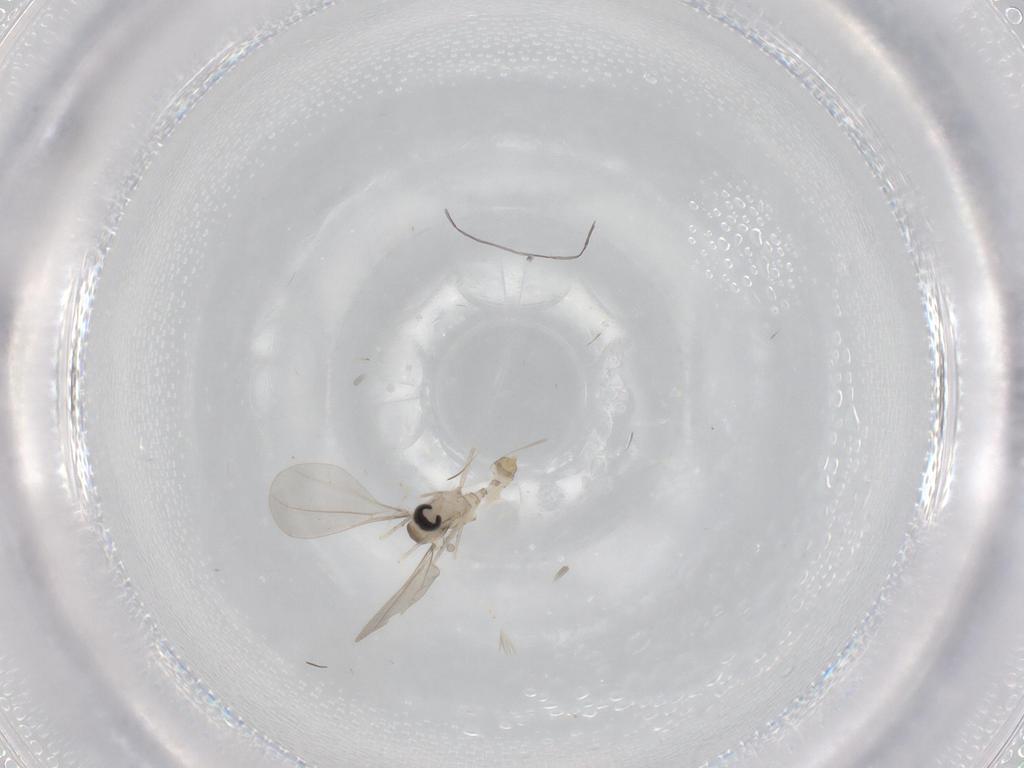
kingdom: Animalia
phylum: Arthropoda
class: Insecta
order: Diptera
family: Cecidomyiidae
